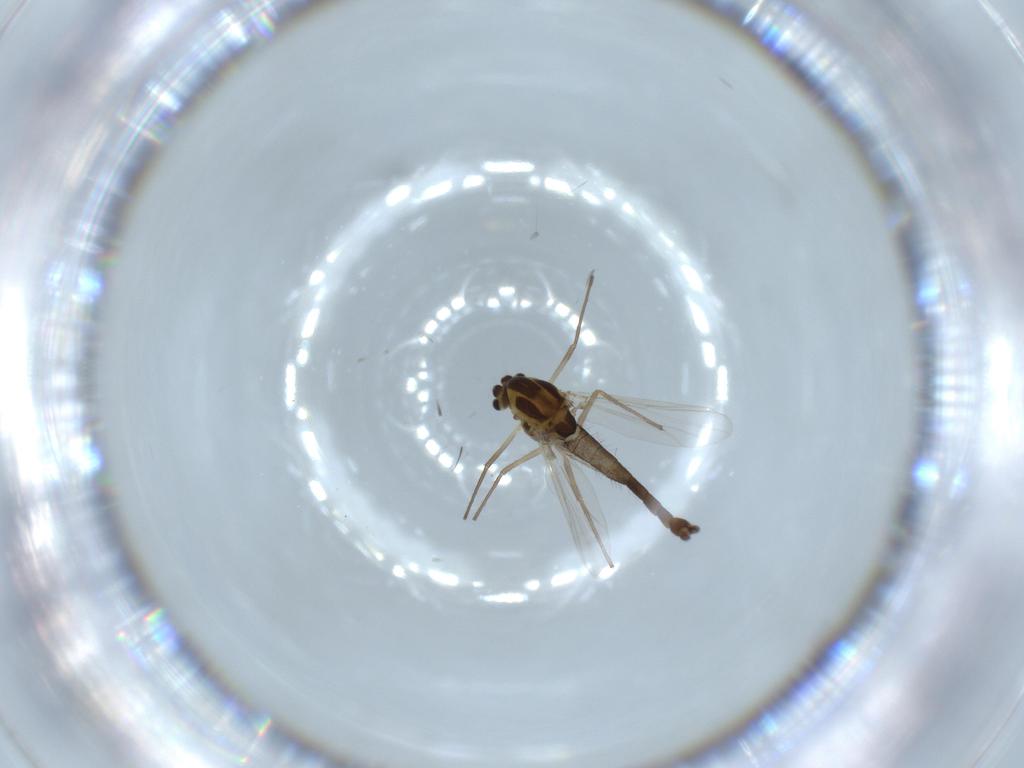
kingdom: Animalia
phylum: Arthropoda
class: Insecta
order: Diptera
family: Chironomidae
